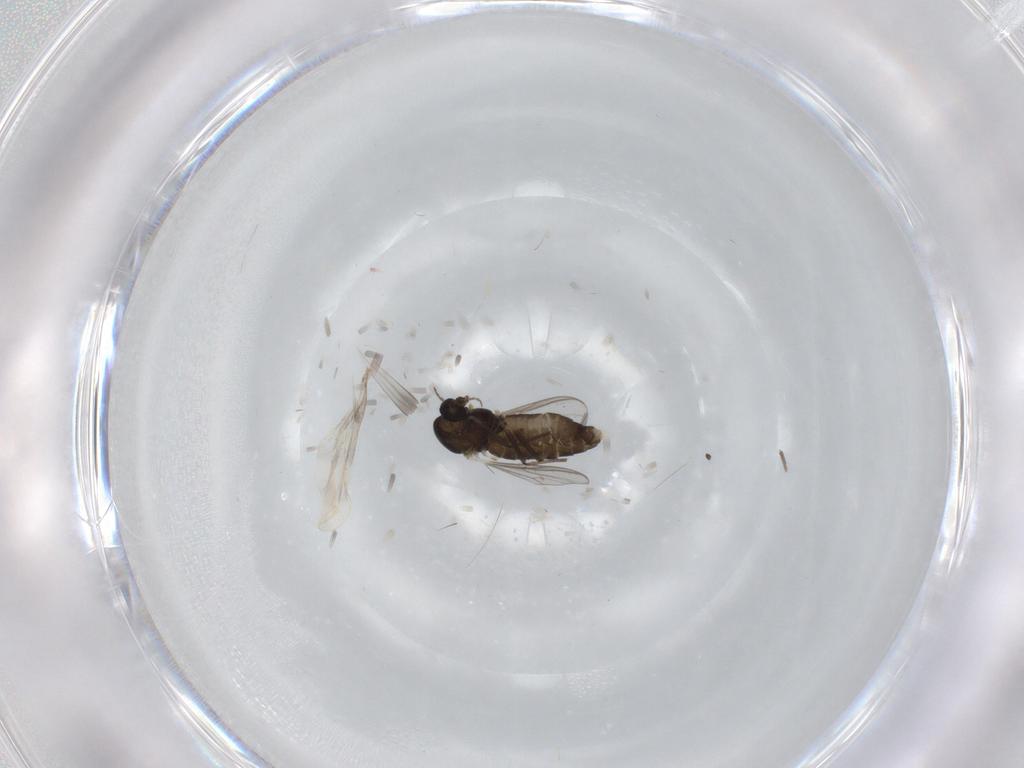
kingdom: Animalia
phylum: Arthropoda
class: Insecta
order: Diptera
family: Chironomidae
